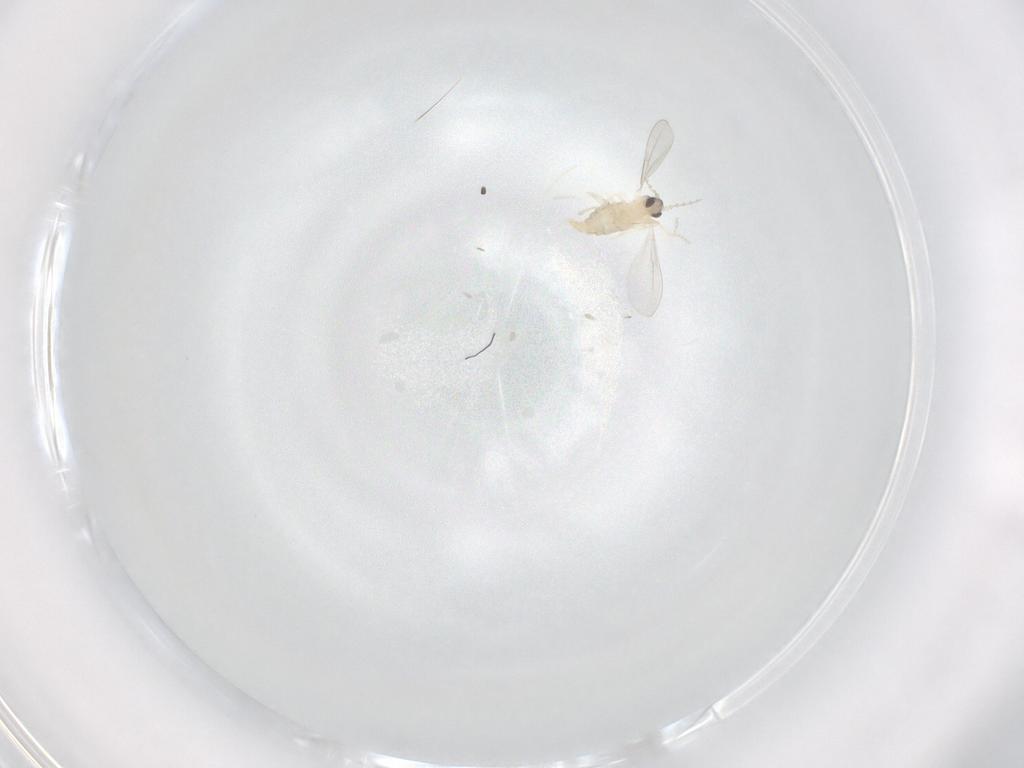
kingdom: Animalia
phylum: Arthropoda
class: Insecta
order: Diptera
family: Cecidomyiidae
